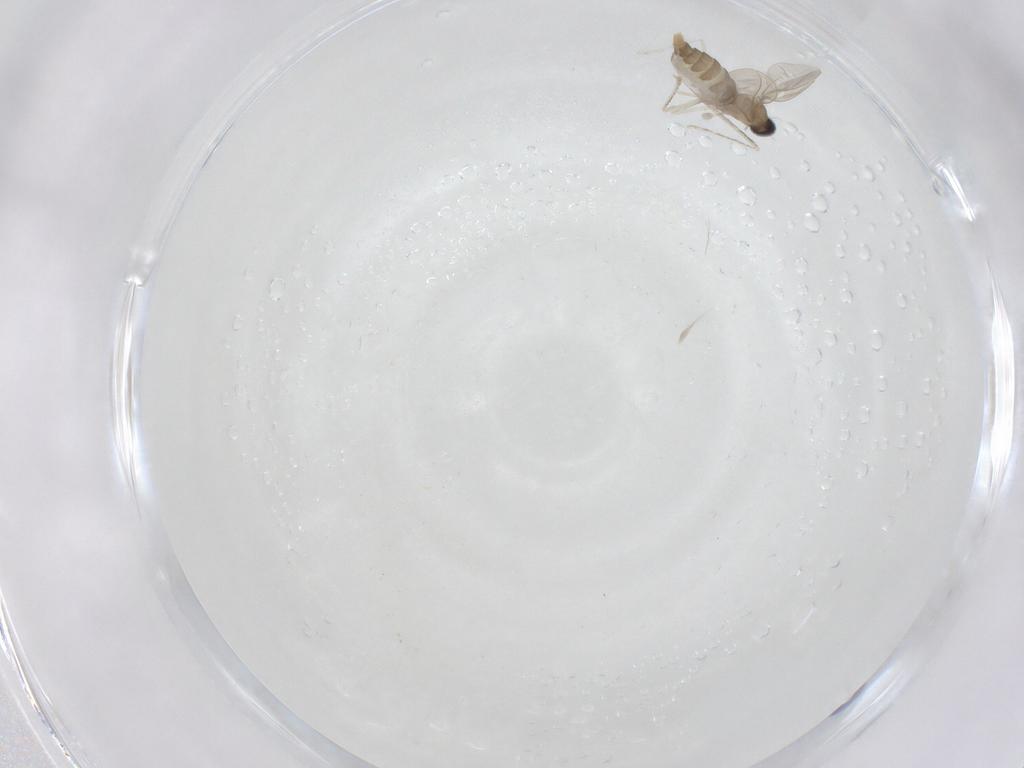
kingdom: Animalia
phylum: Arthropoda
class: Insecta
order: Diptera
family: Cecidomyiidae
